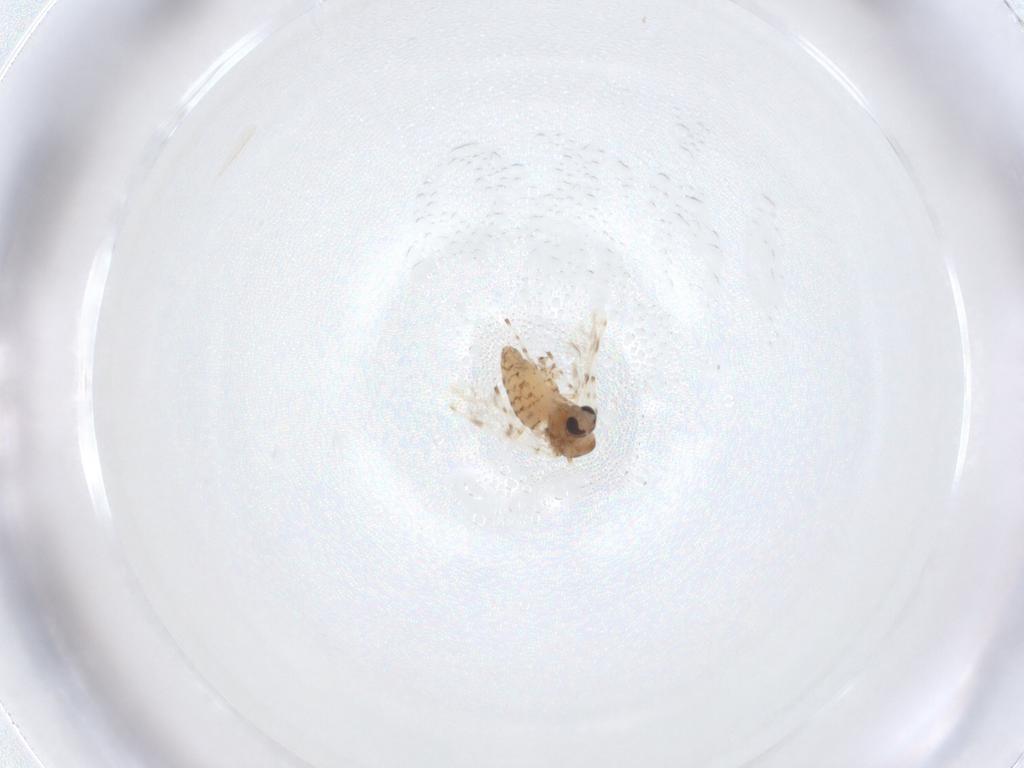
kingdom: Animalia
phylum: Arthropoda
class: Insecta
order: Diptera
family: Chironomidae
